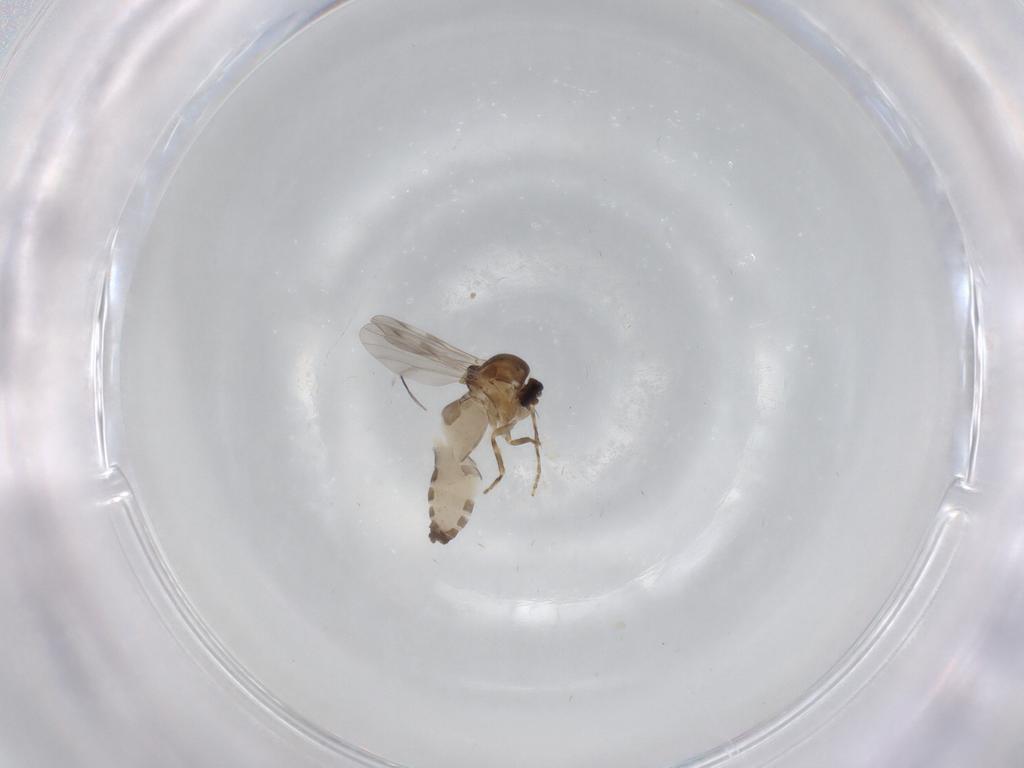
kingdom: Animalia
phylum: Arthropoda
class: Insecta
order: Diptera
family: Ceratopogonidae
